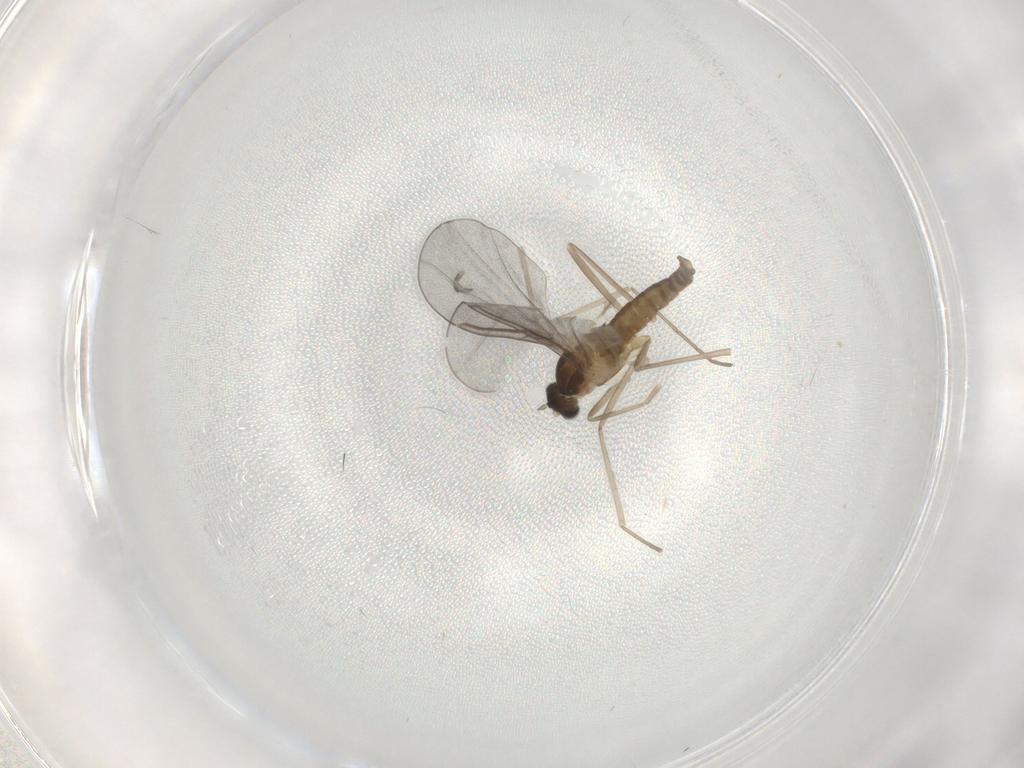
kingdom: Animalia
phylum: Arthropoda
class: Insecta
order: Diptera
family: Cecidomyiidae
